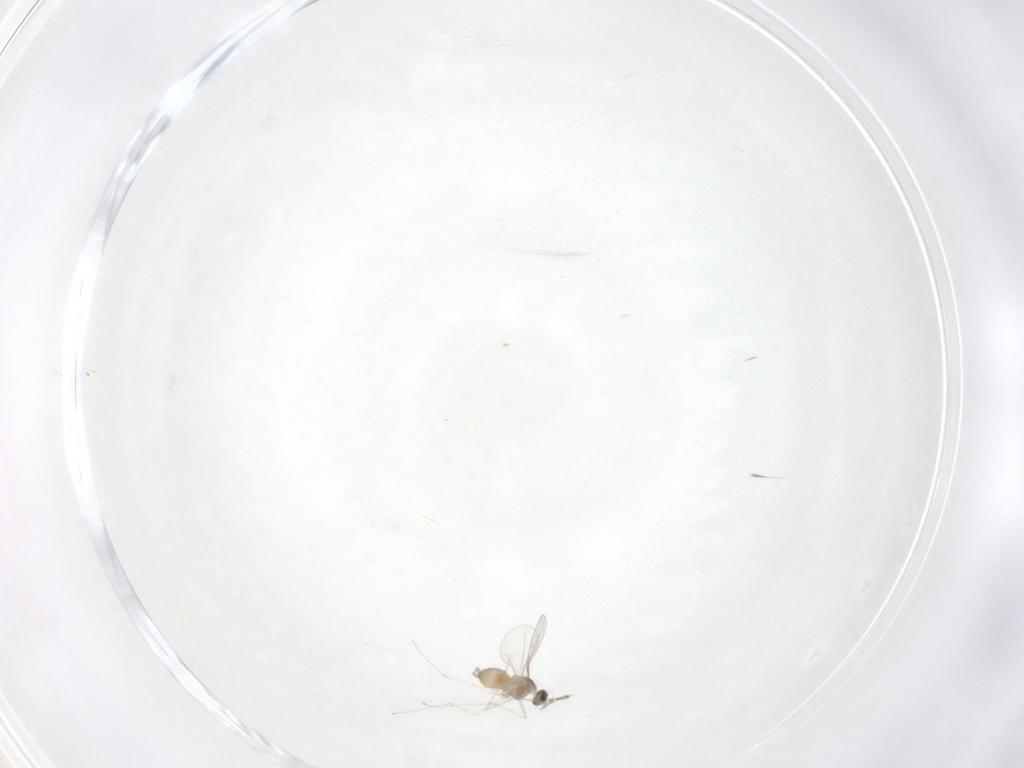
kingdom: Animalia
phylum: Arthropoda
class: Insecta
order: Diptera
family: Cecidomyiidae
